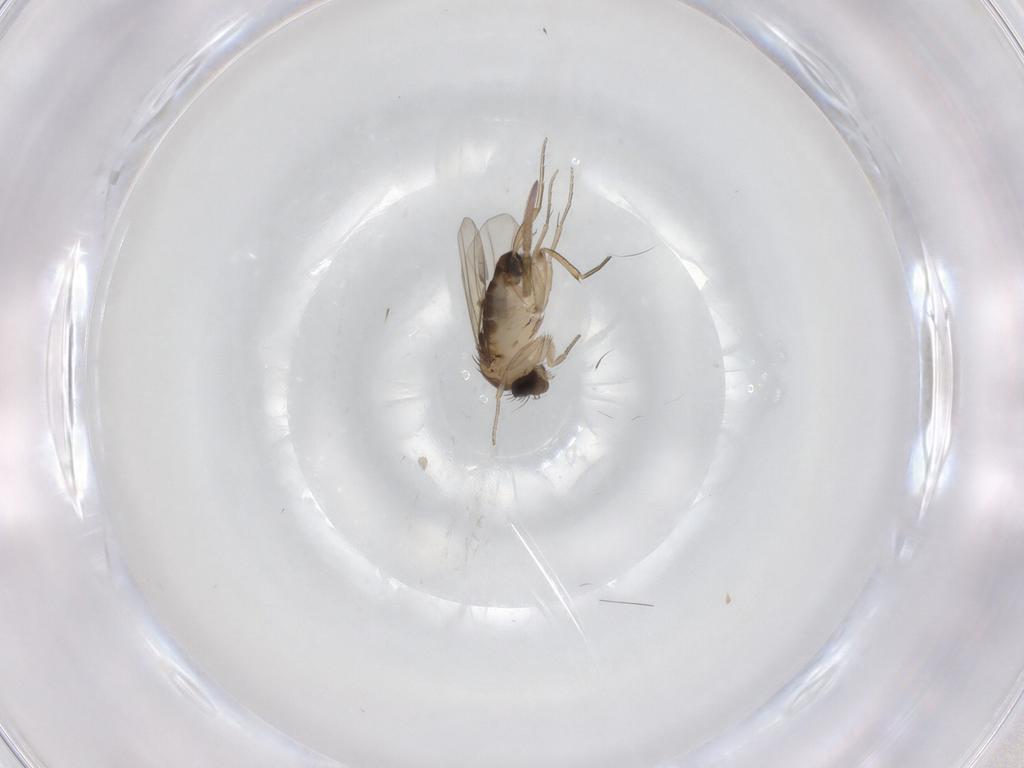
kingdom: Animalia
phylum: Arthropoda
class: Insecta
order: Diptera
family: Phoridae
